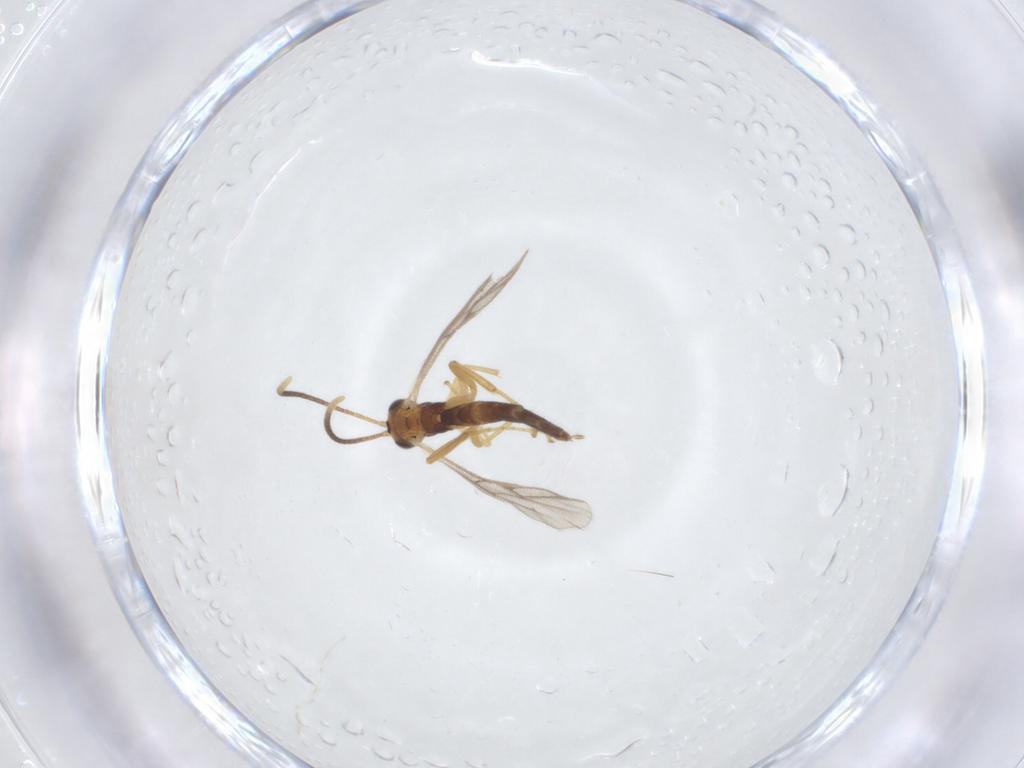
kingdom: Animalia
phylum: Arthropoda
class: Insecta
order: Hymenoptera
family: Ichneumonidae
